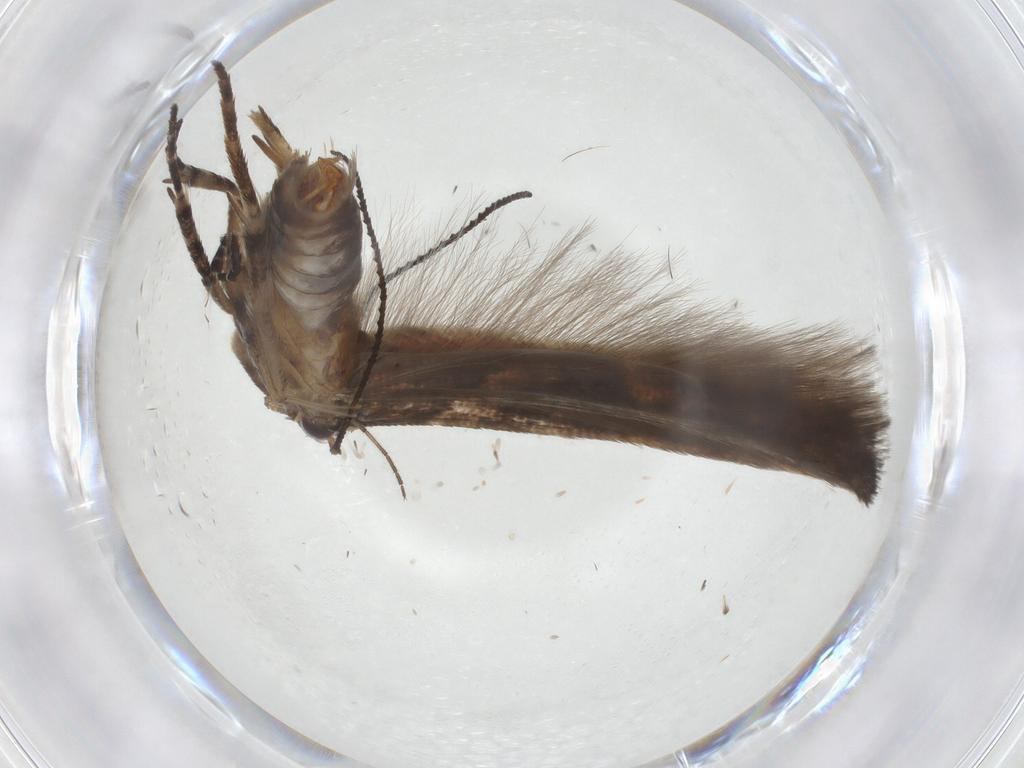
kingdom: Animalia
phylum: Arthropoda
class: Insecta
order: Lepidoptera
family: Gelechiidae
